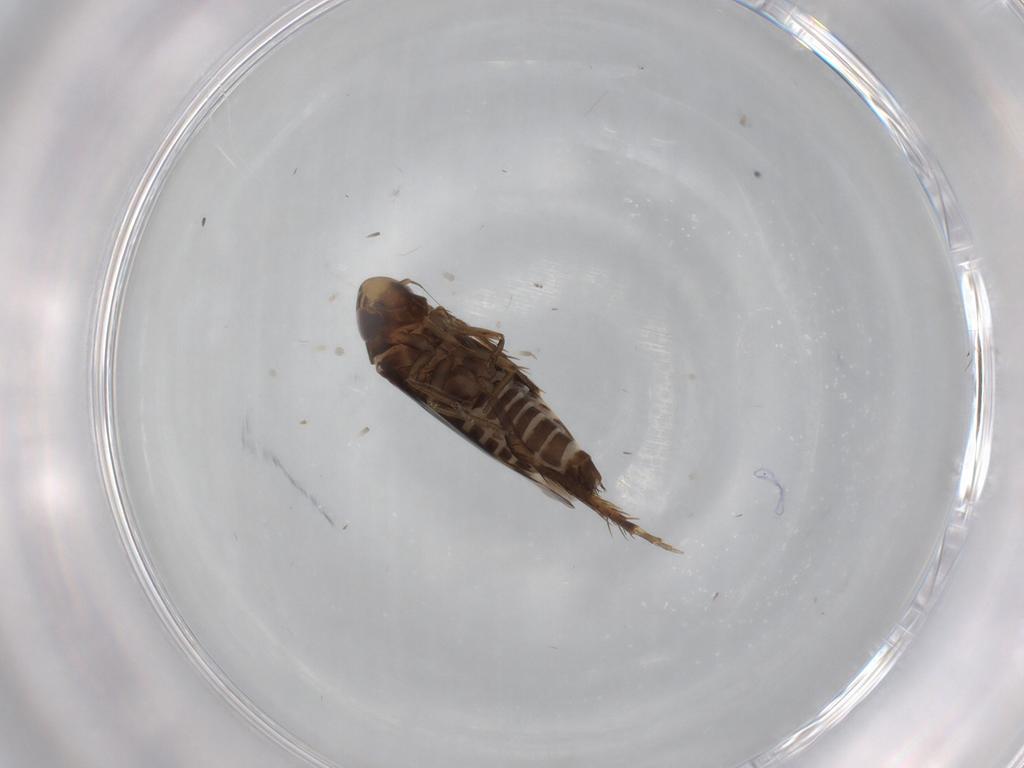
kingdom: Animalia
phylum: Arthropoda
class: Insecta
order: Hemiptera
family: Cicadellidae
